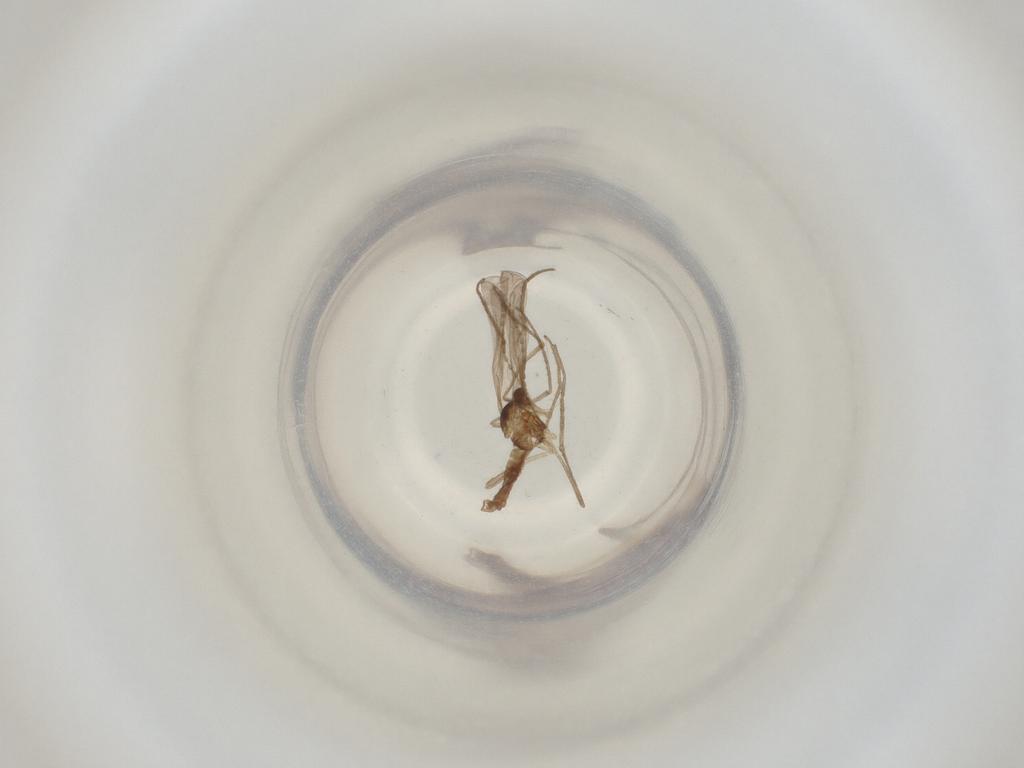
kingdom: Animalia
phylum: Arthropoda
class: Insecta
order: Diptera
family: Cecidomyiidae
